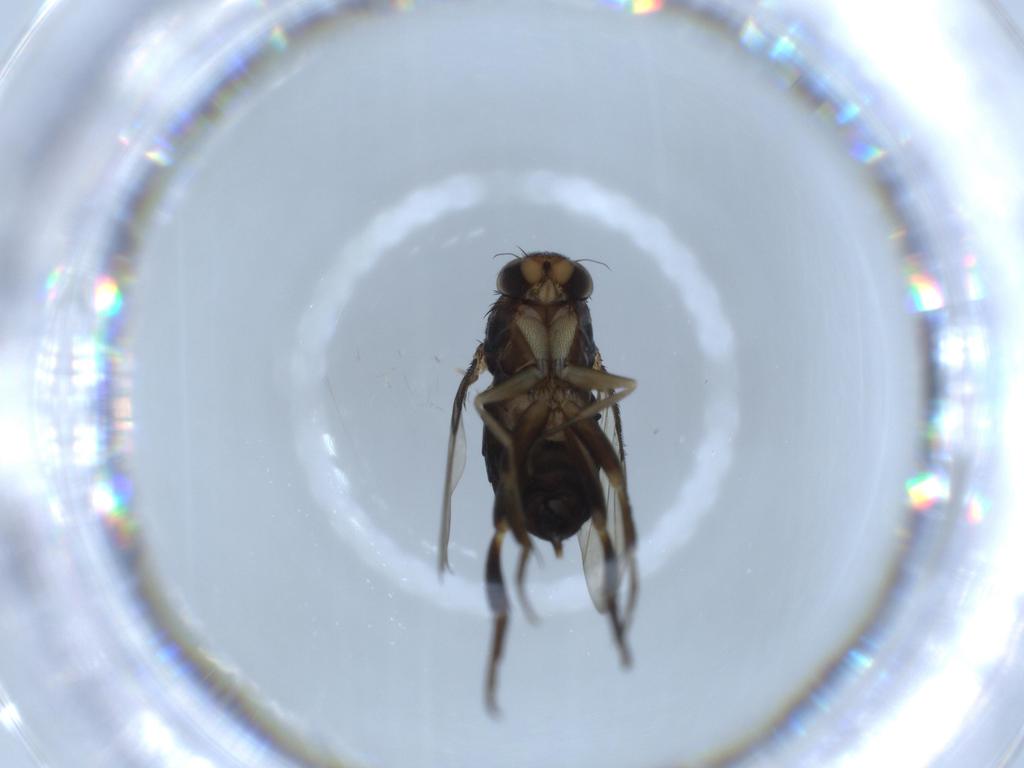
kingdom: Animalia
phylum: Arthropoda
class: Insecta
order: Diptera
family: Phoridae
